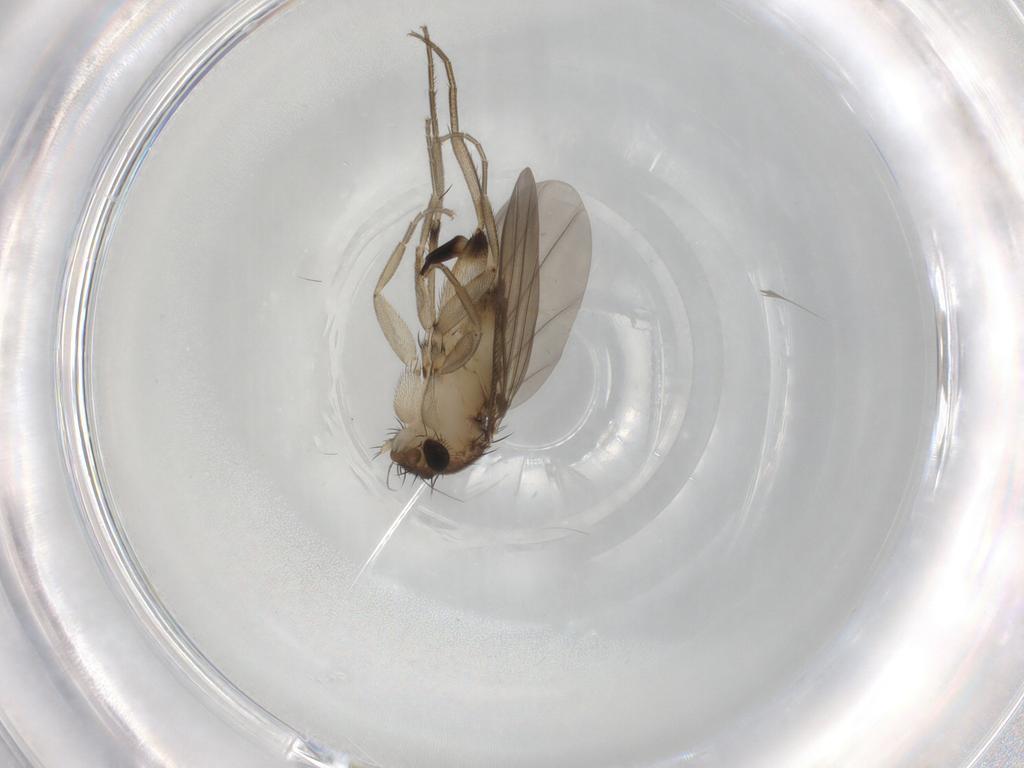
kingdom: Animalia
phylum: Arthropoda
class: Insecta
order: Diptera
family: Phoridae
